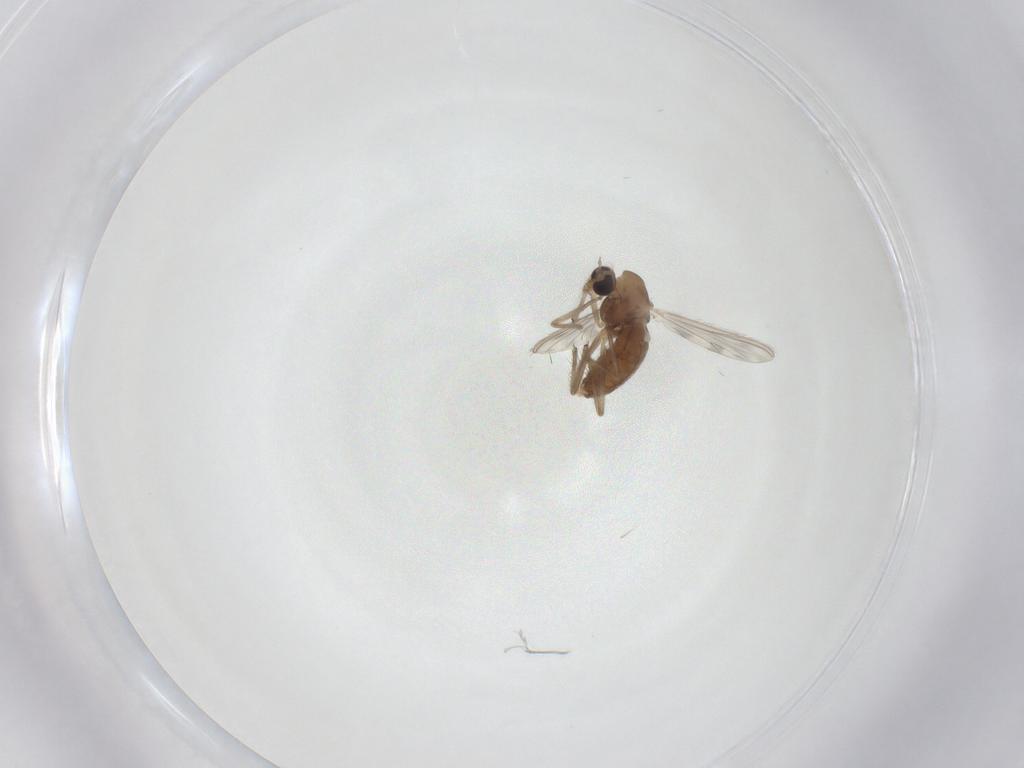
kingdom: Animalia
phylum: Arthropoda
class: Insecta
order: Diptera
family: Chironomidae
